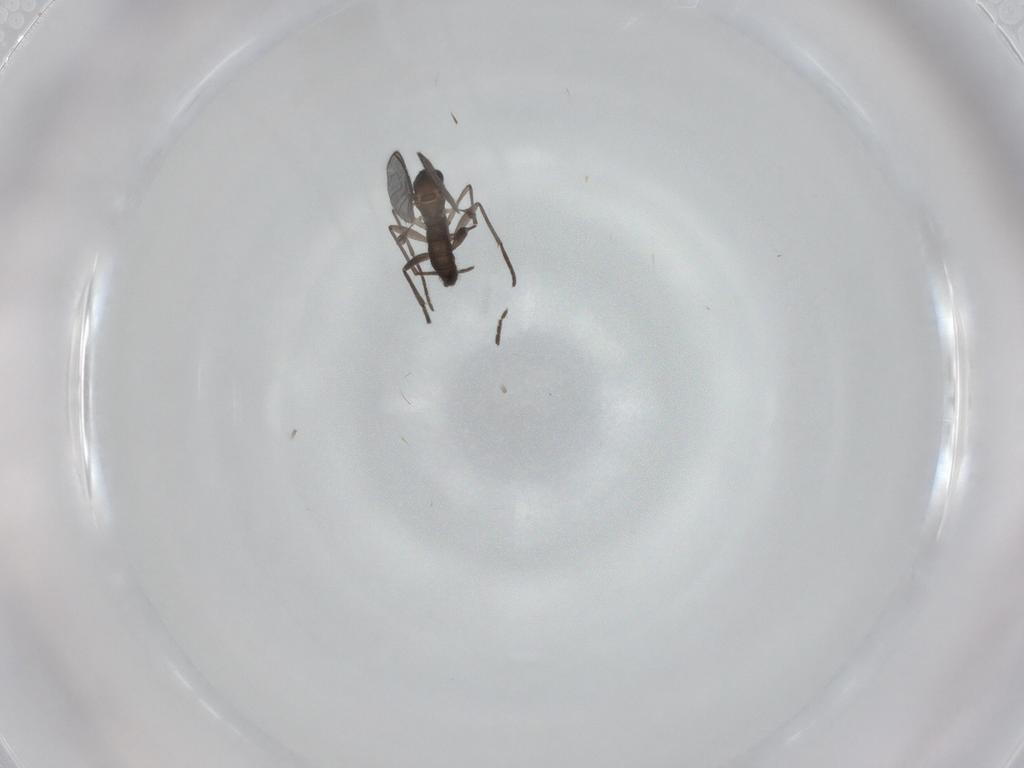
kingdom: Animalia
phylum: Arthropoda
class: Insecta
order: Diptera
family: Sciaridae
